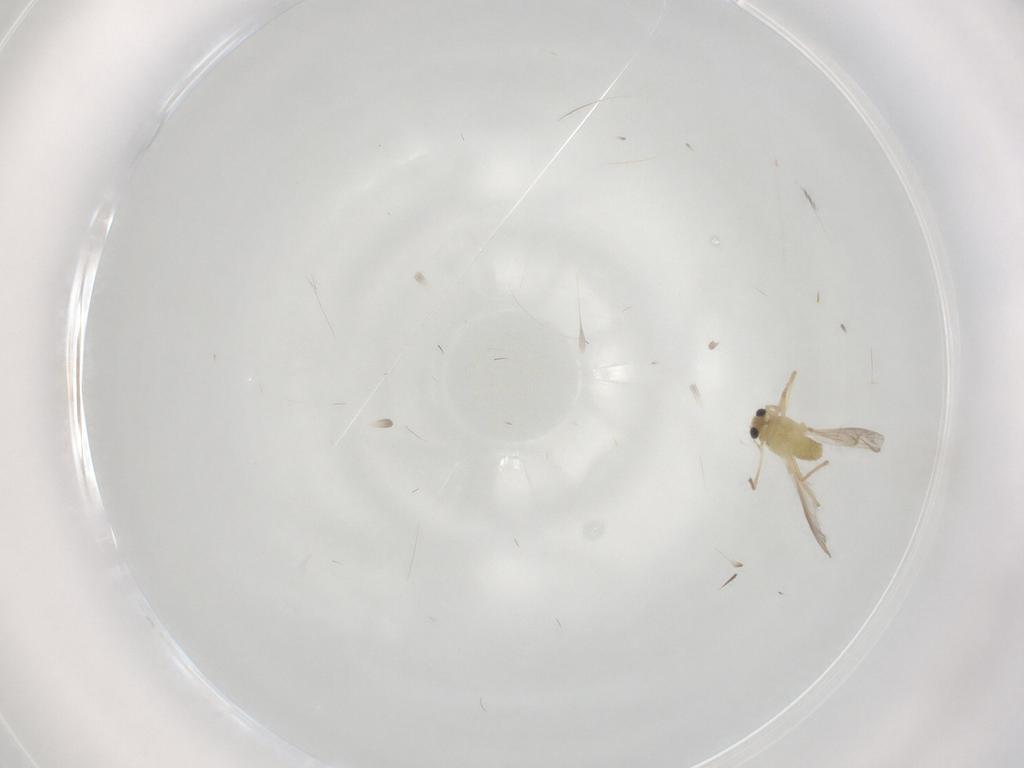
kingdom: Animalia
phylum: Arthropoda
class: Insecta
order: Diptera
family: Chironomidae
